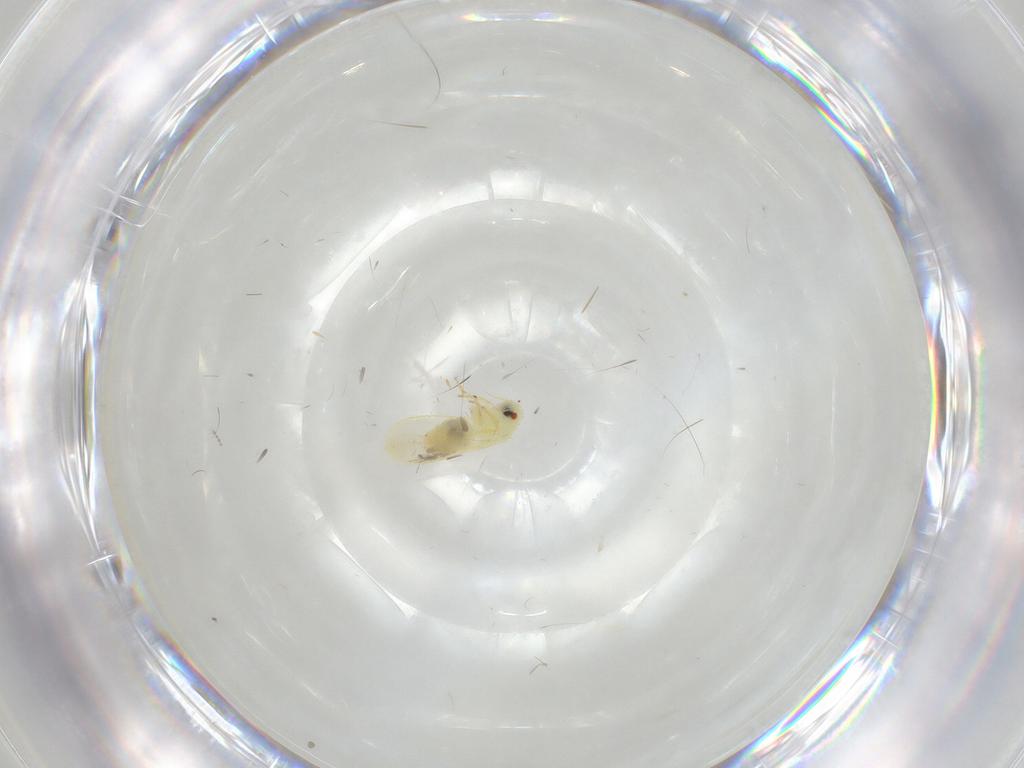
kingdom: Animalia
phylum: Arthropoda
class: Insecta
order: Hemiptera
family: Aleyrodidae
